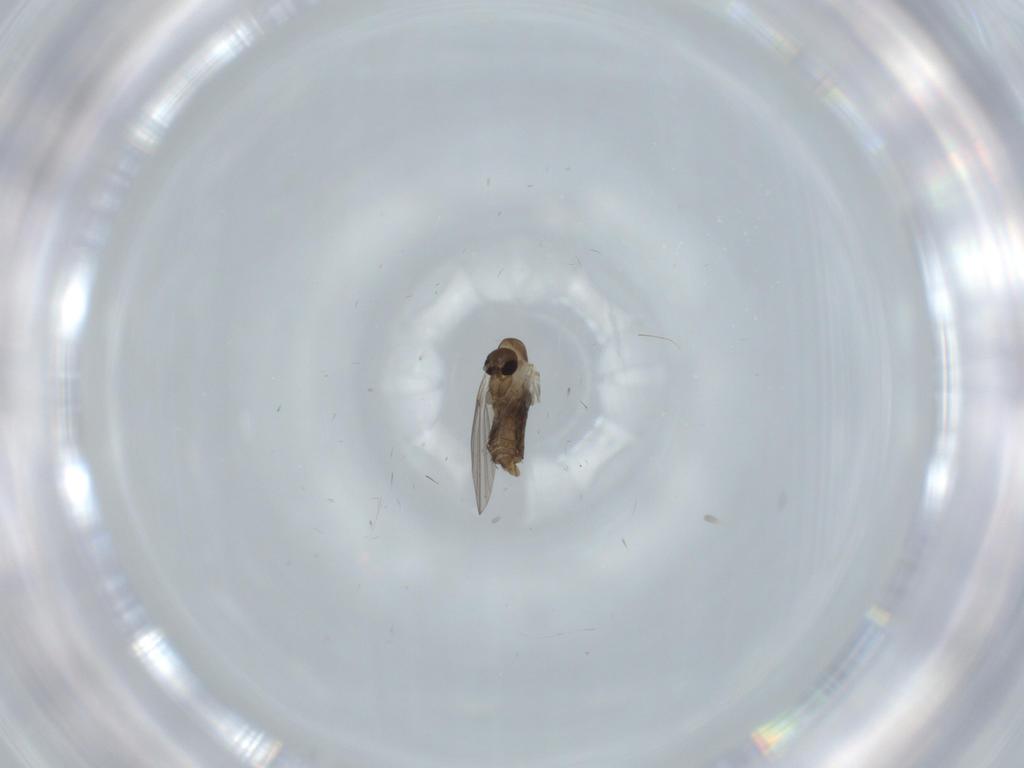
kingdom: Animalia
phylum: Arthropoda
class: Insecta
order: Diptera
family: Psychodidae
